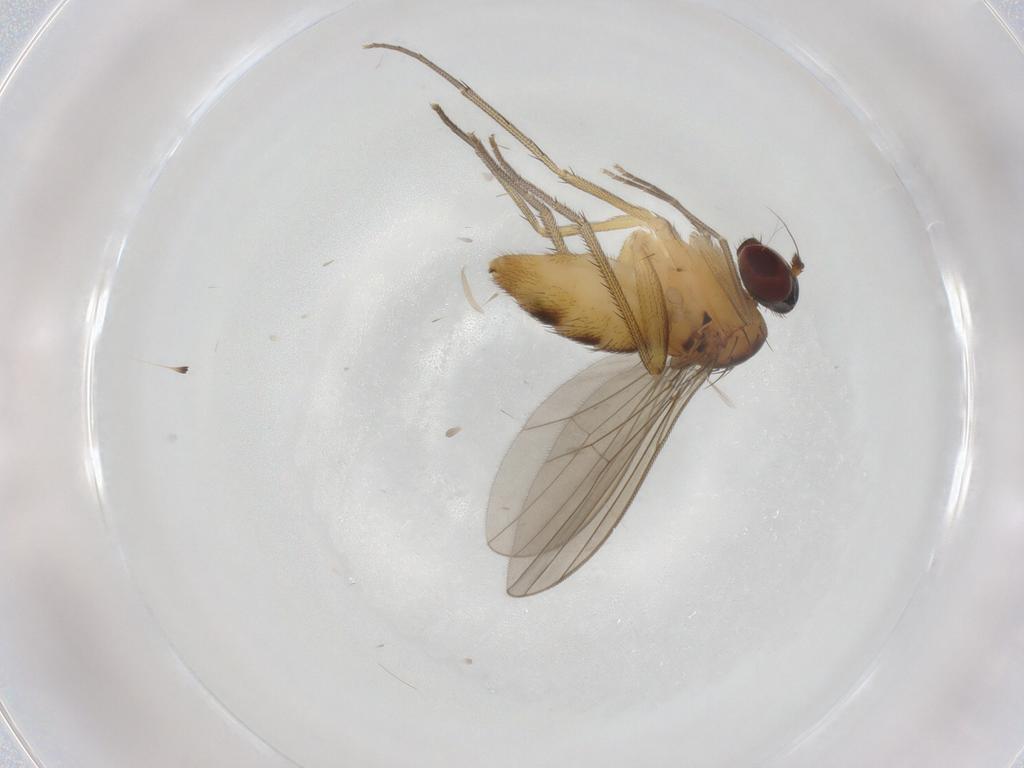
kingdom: Animalia
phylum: Arthropoda
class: Insecta
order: Diptera
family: Dolichopodidae
